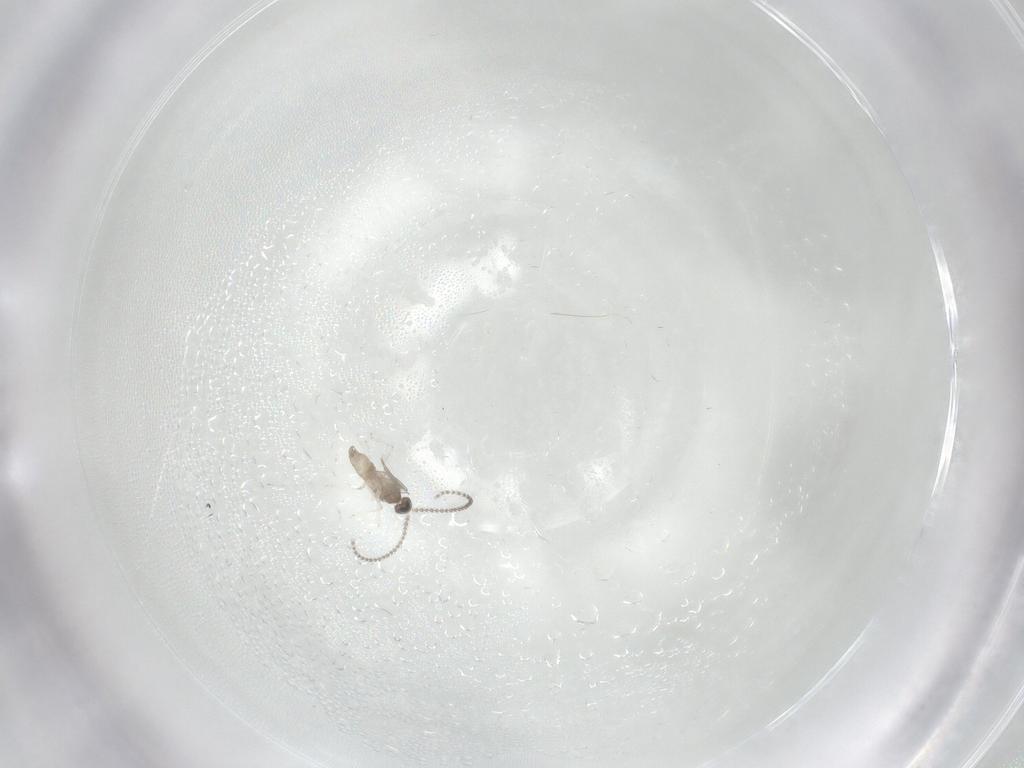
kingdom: Animalia
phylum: Arthropoda
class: Insecta
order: Diptera
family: Cecidomyiidae
